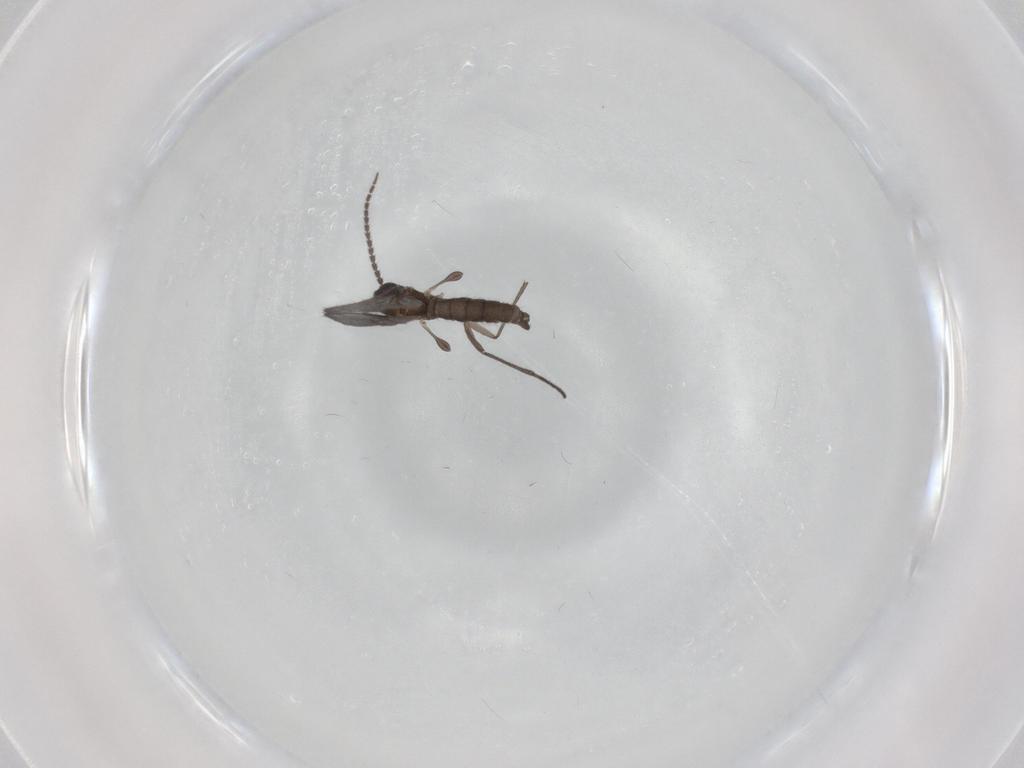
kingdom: Animalia
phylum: Arthropoda
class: Insecta
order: Diptera
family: Sciaridae
